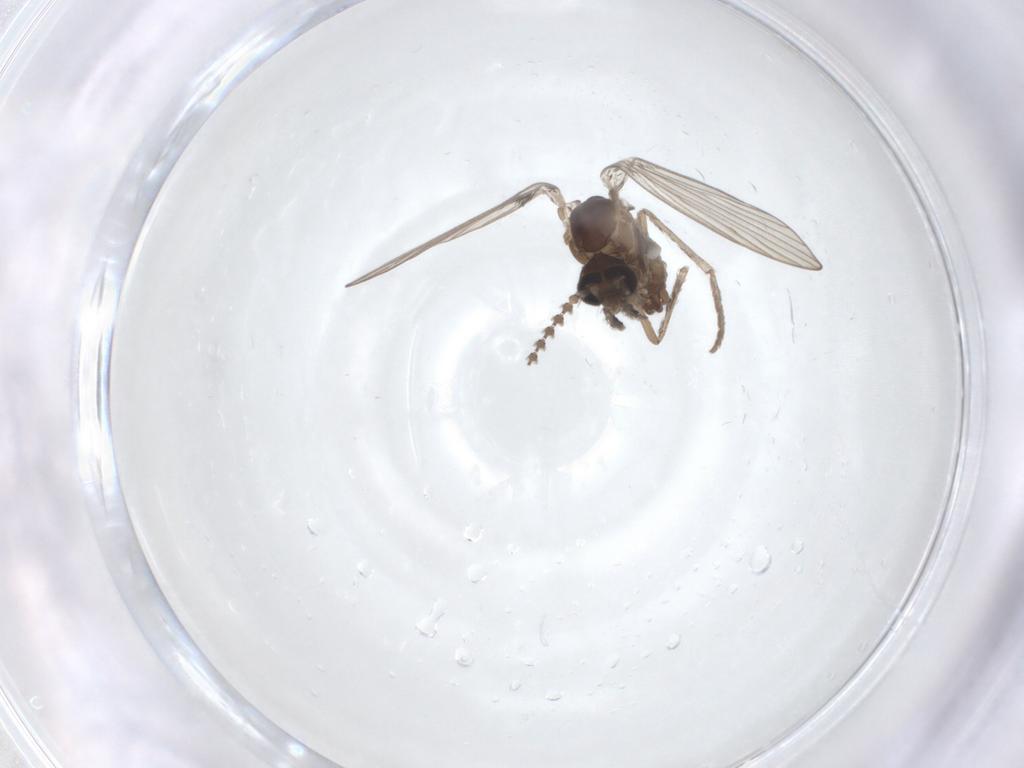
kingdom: Animalia
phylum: Arthropoda
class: Insecta
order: Diptera
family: Psychodidae
